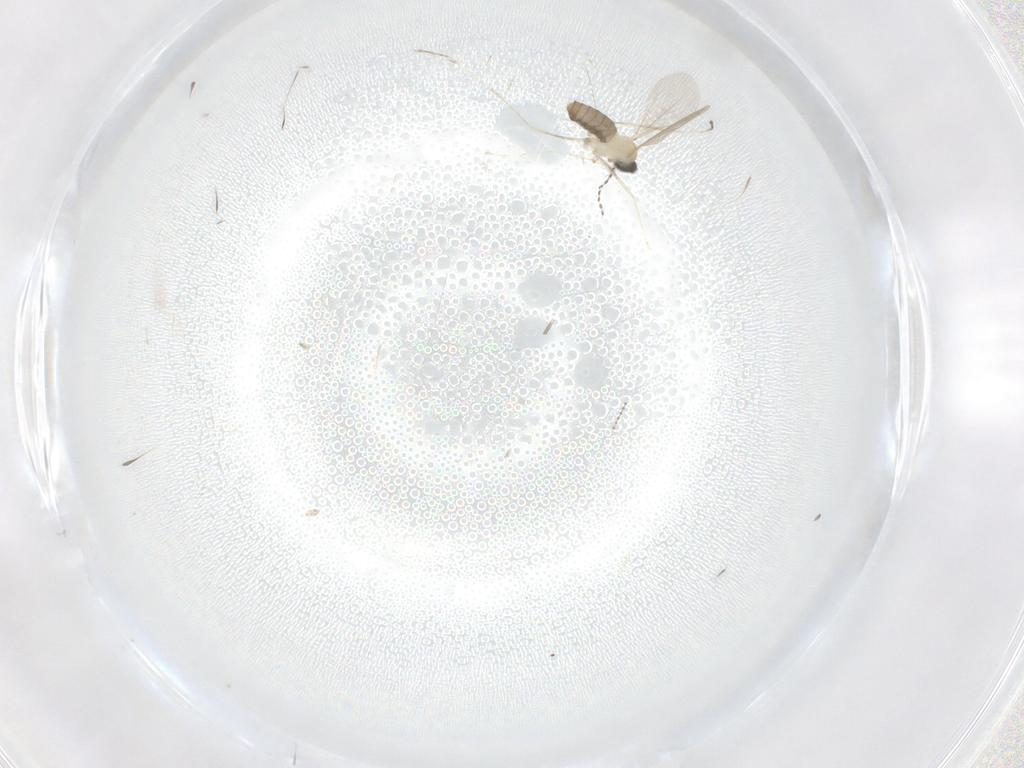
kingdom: Animalia
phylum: Arthropoda
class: Insecta
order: Diptera
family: Cecidomyiidae
